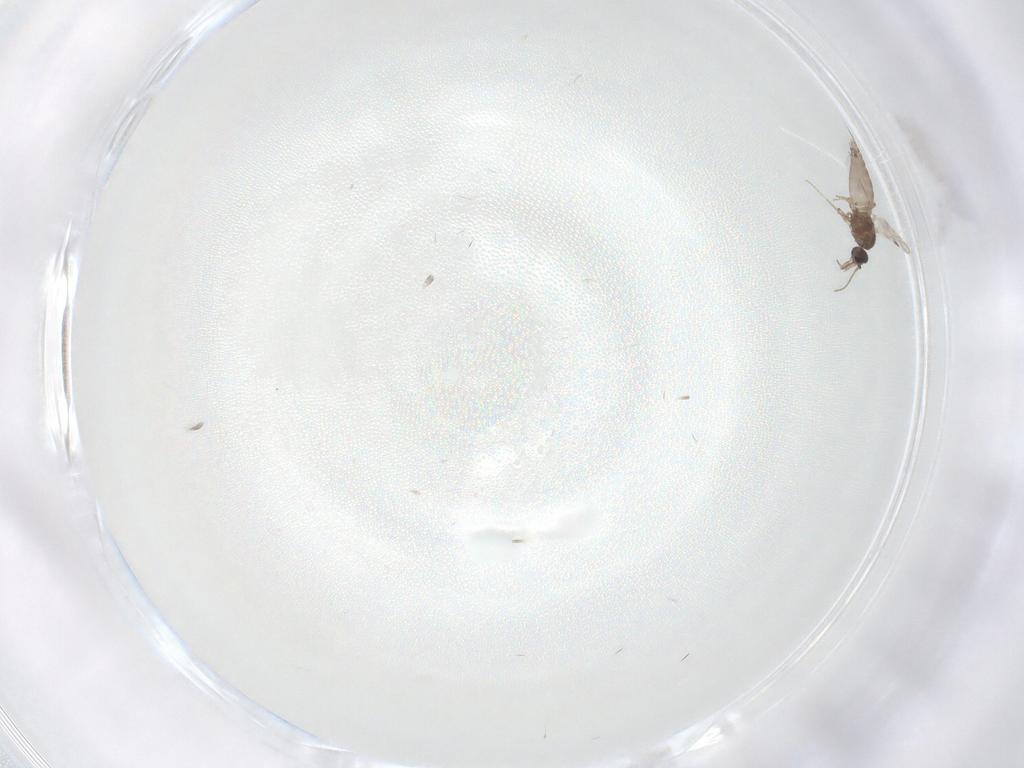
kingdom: Animalia
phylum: Arthropoda
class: Insecta
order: Diptera
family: Chironomidae
